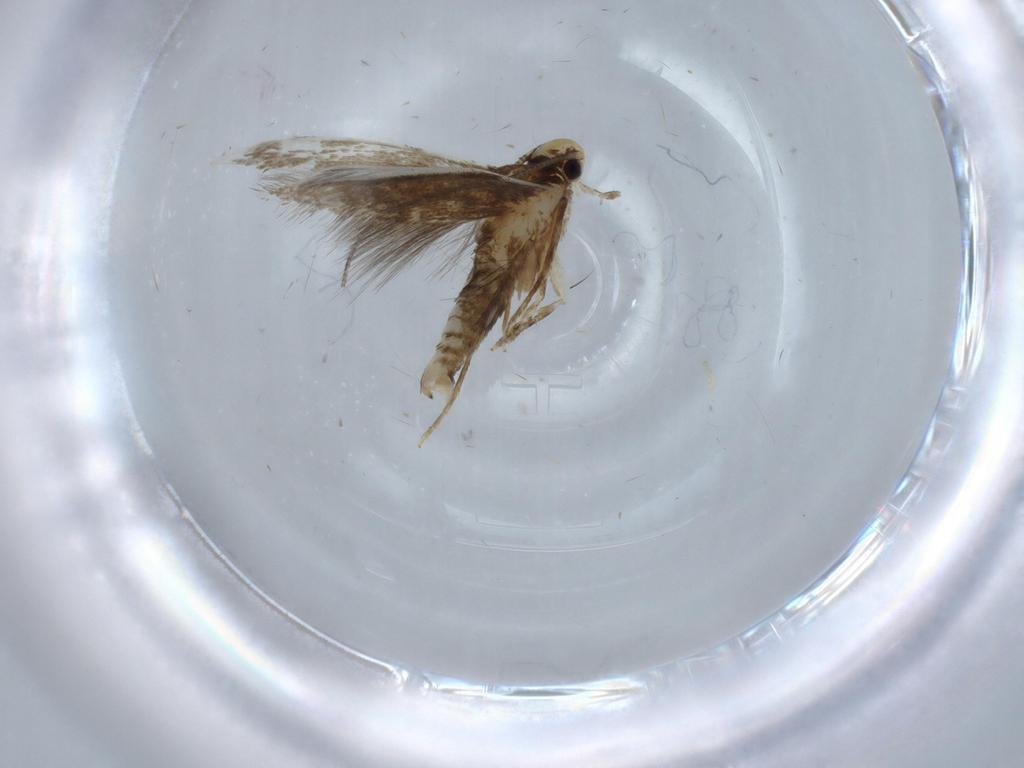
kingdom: Animalia
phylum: Arthropoda
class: Insecta
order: Lepidoptera
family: Tineidae
